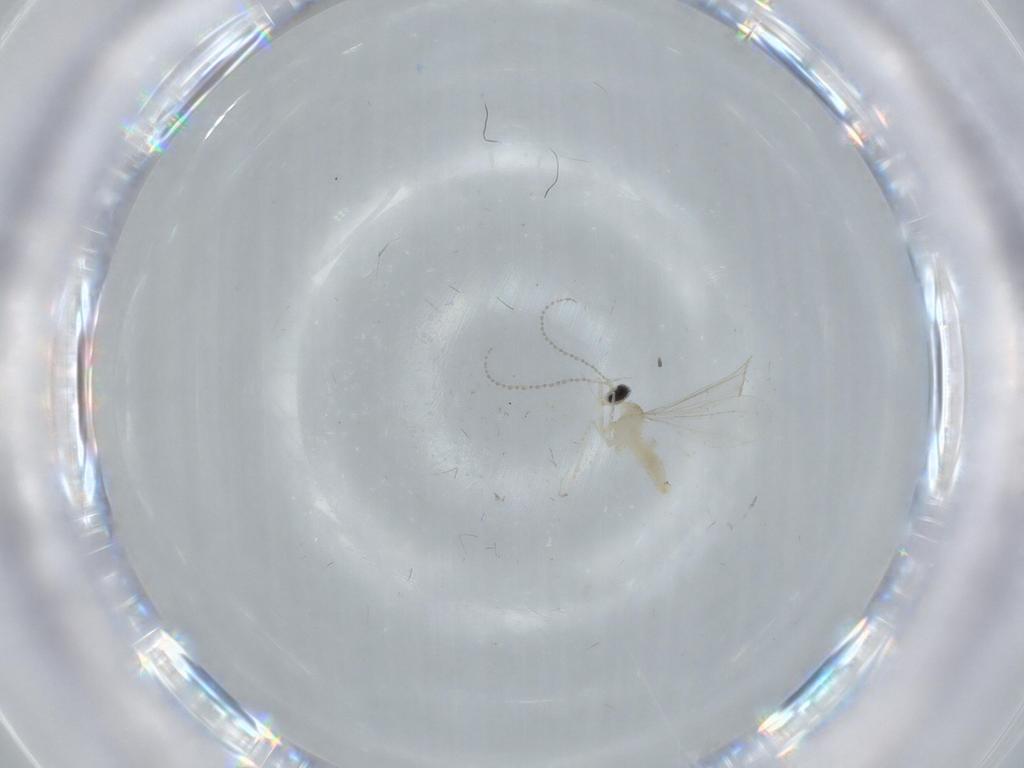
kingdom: Animalia
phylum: Arthropoda
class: Insecta
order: Diptera
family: Cecidomyiidae
